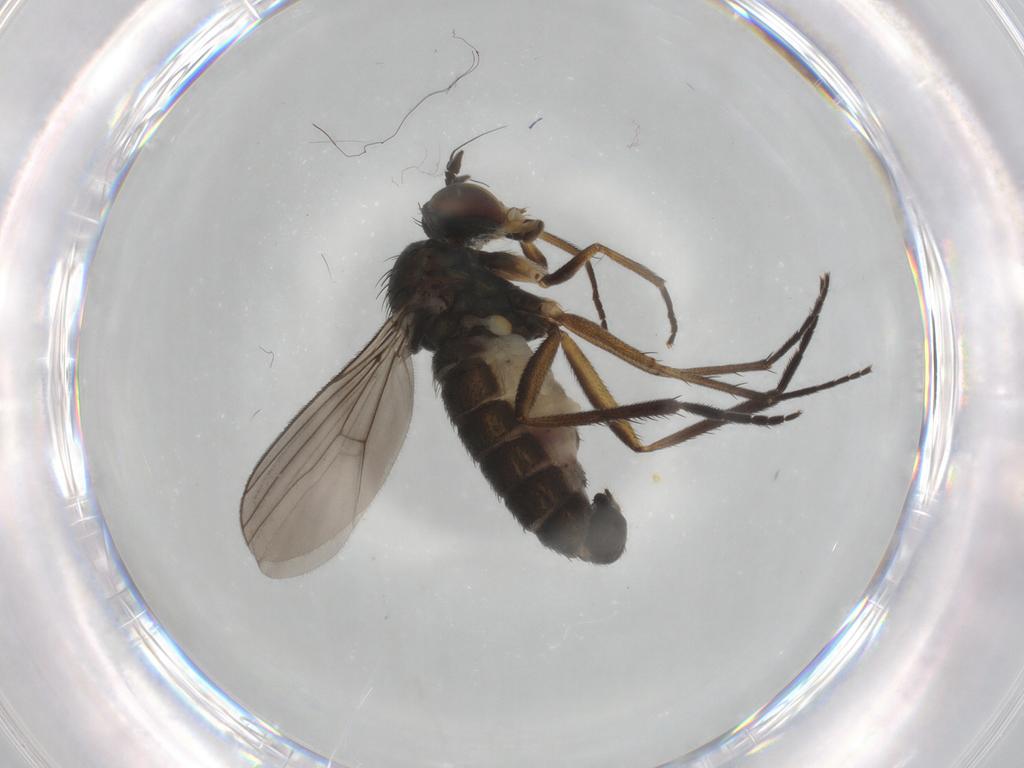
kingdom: Animalia
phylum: Arthropoda
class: Insecta
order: Diptera
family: Dolichopodidae
